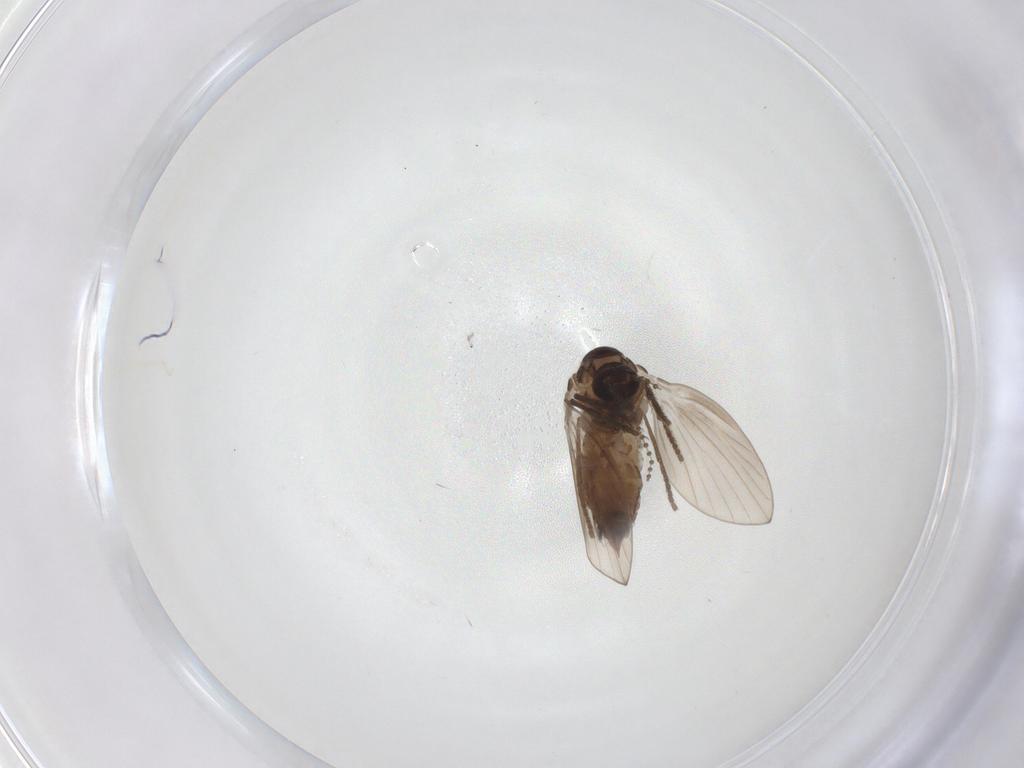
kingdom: Animalia
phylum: Arthropoda
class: Insecta
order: Diptera
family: Psychodidae
